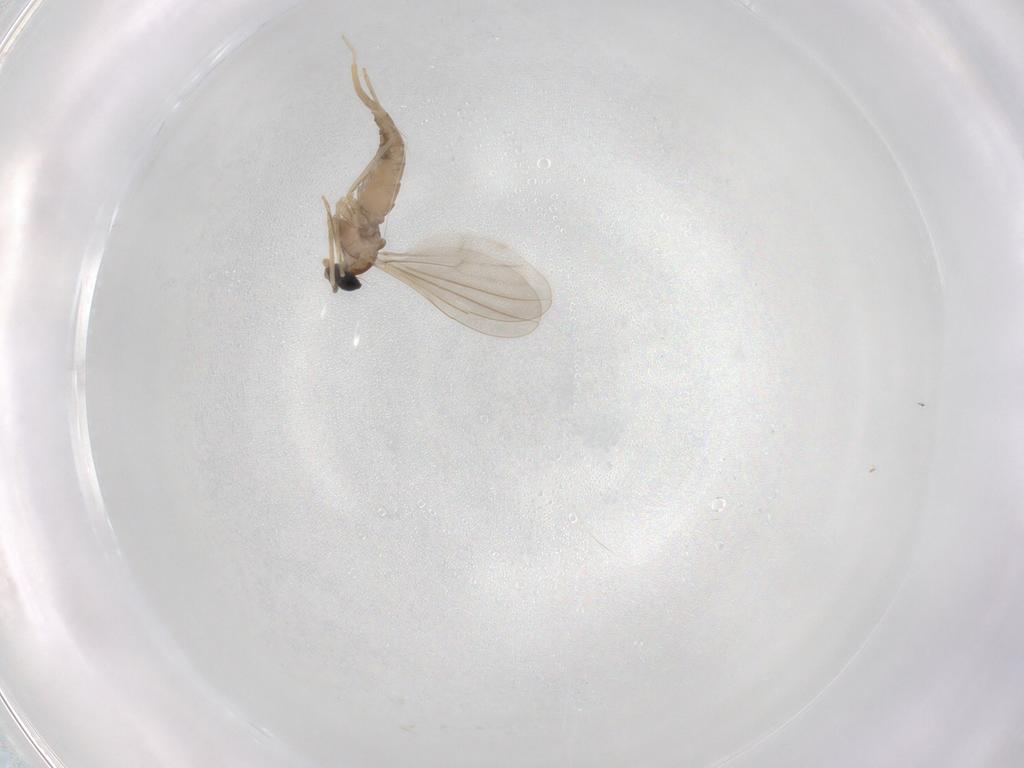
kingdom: Animalia
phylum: Arthropoda
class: Insecta
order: Diptera
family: Cecidomyiidae
